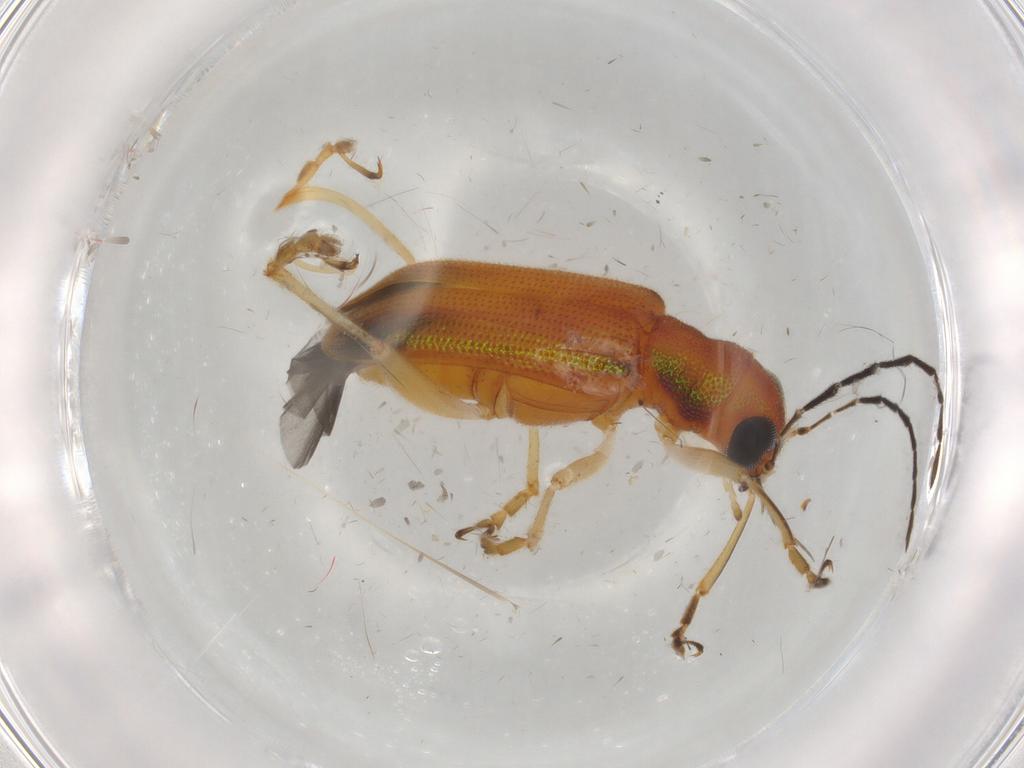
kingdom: Animalia
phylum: Arthropoda
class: Insecta
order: Coleoptera
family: Chrysomelidae
